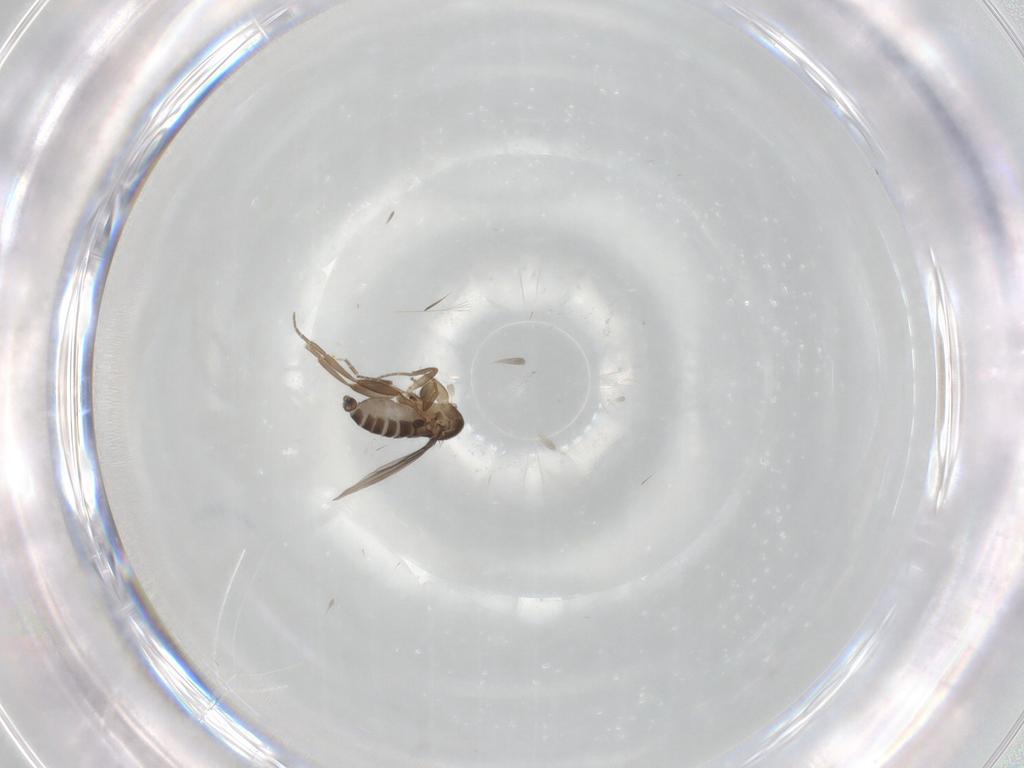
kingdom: Animalia
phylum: Arthropoda
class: Insecta
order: Diptera
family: Phoridae
